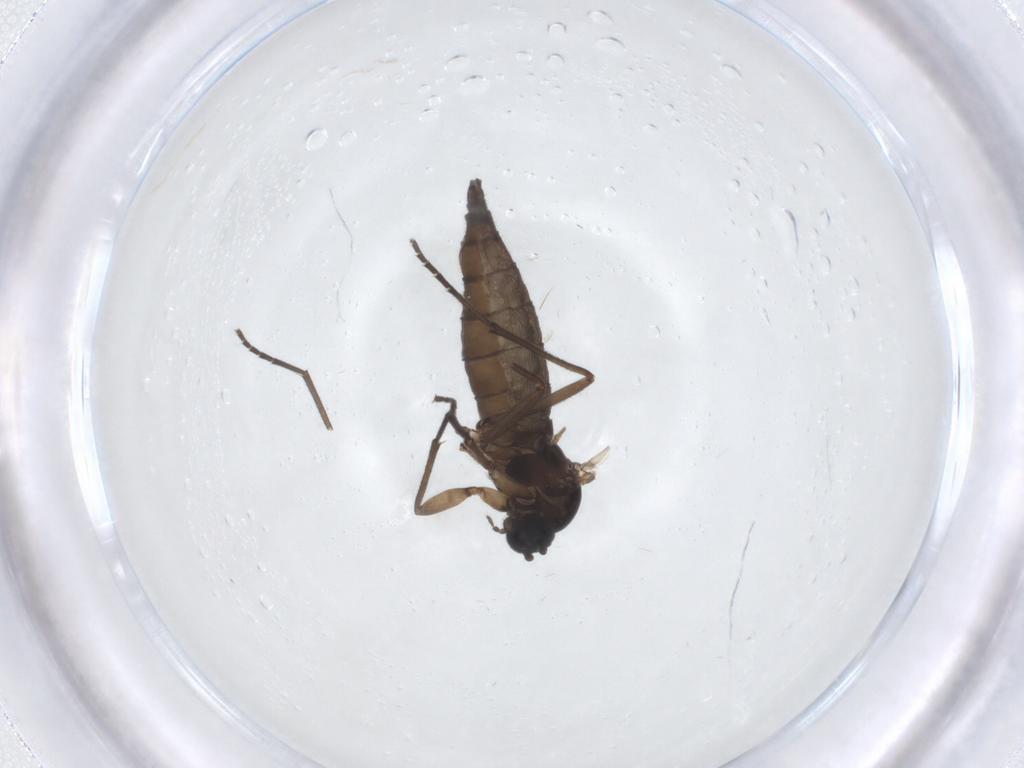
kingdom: Animalia
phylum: Arthropoda
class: Insecta
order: Diptera
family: Sciaridae
